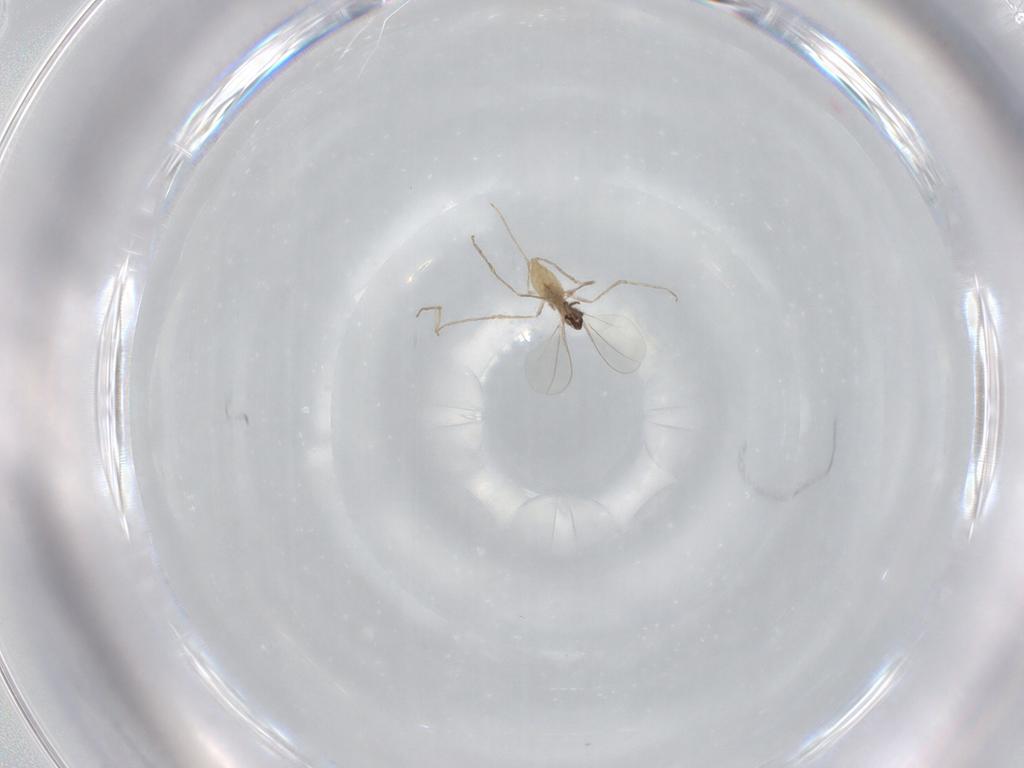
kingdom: Animalia
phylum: Arthropoda
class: Insecta
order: Diptera
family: Cecidomyiidae
